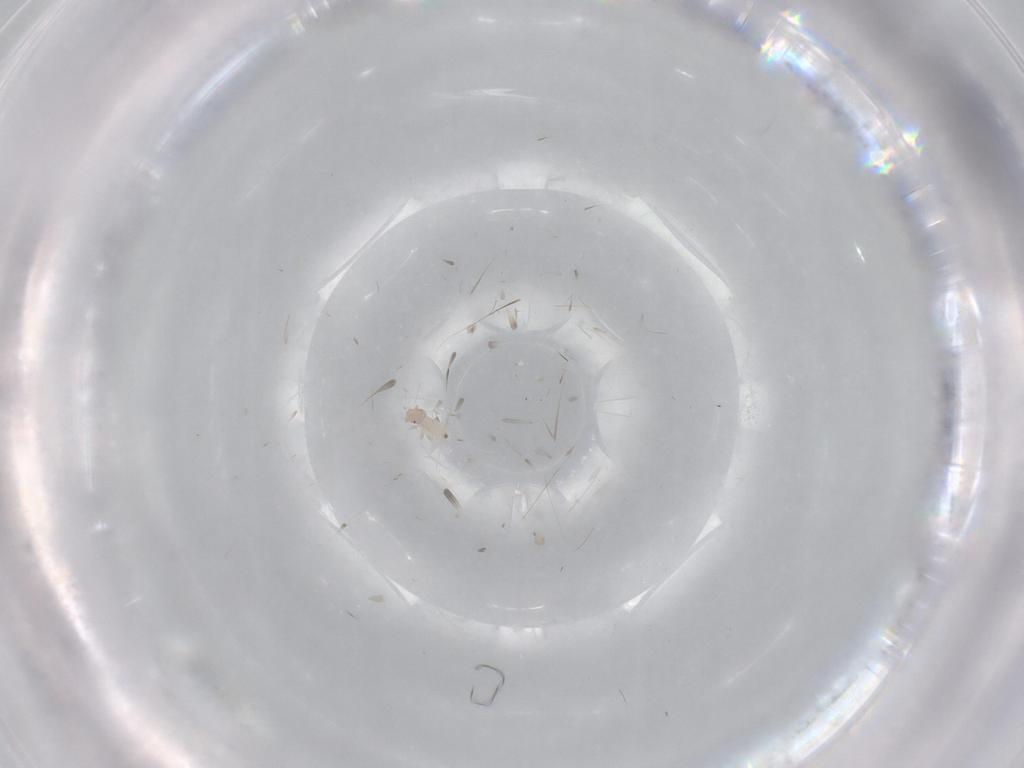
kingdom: Animalia
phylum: Arthropoda
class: Insecta
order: Psocodea
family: Liposcelididae
